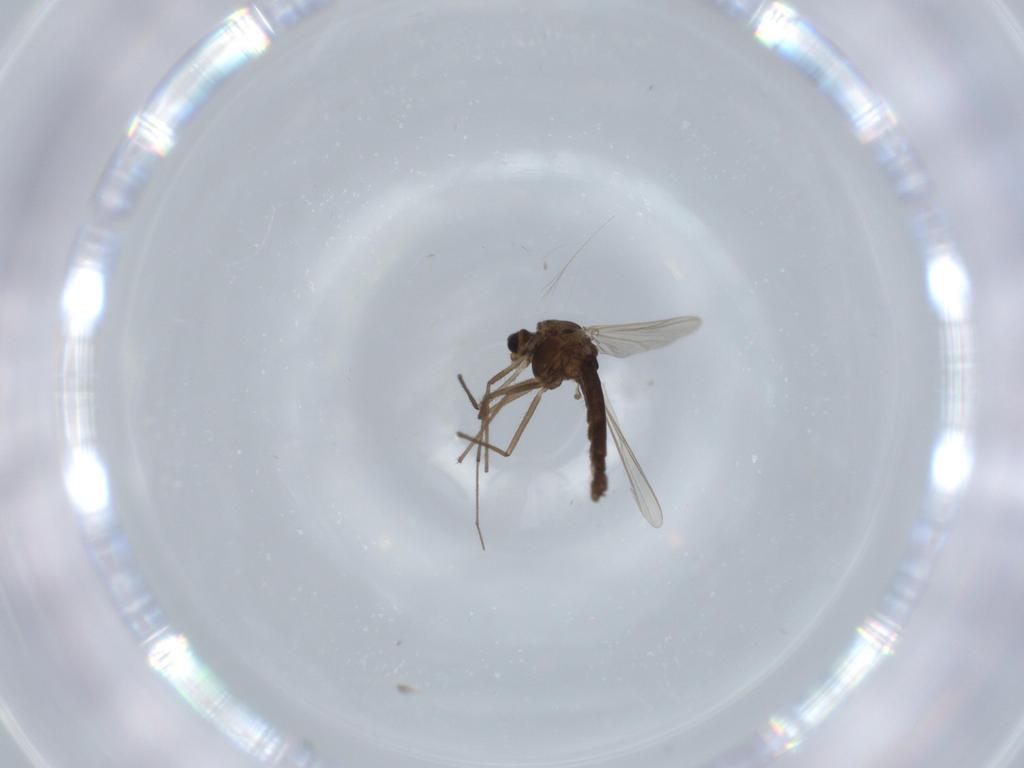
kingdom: Animalia
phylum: Arthropoda
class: Insecta
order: Diptera
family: Chironomidae
